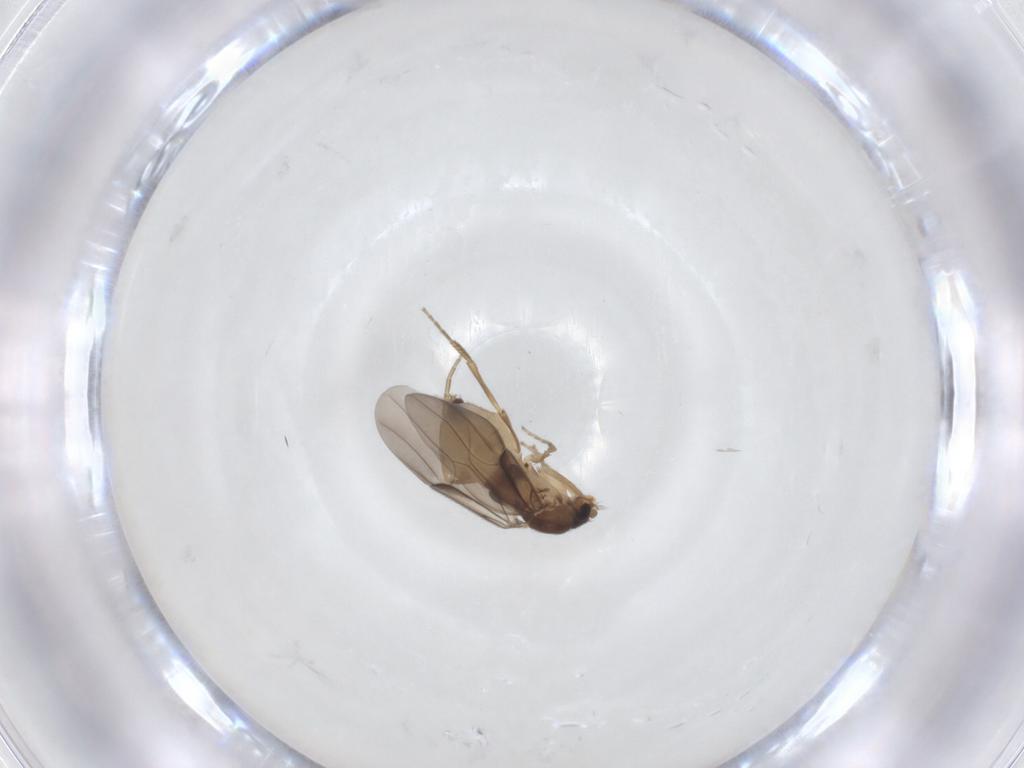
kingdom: Animalia
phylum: Arthropoda
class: Insecta
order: Diptera
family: Phoridae
